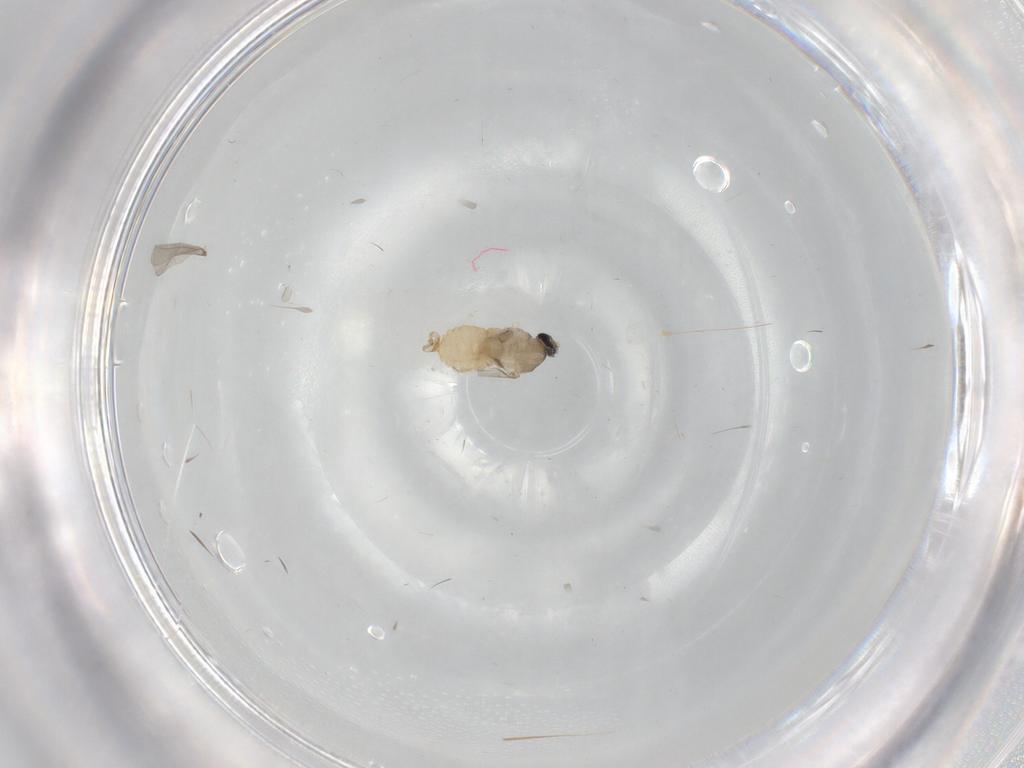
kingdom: Animalia
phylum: Arthropoda
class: Insecta
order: Diptera
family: Cecidomyiidae
